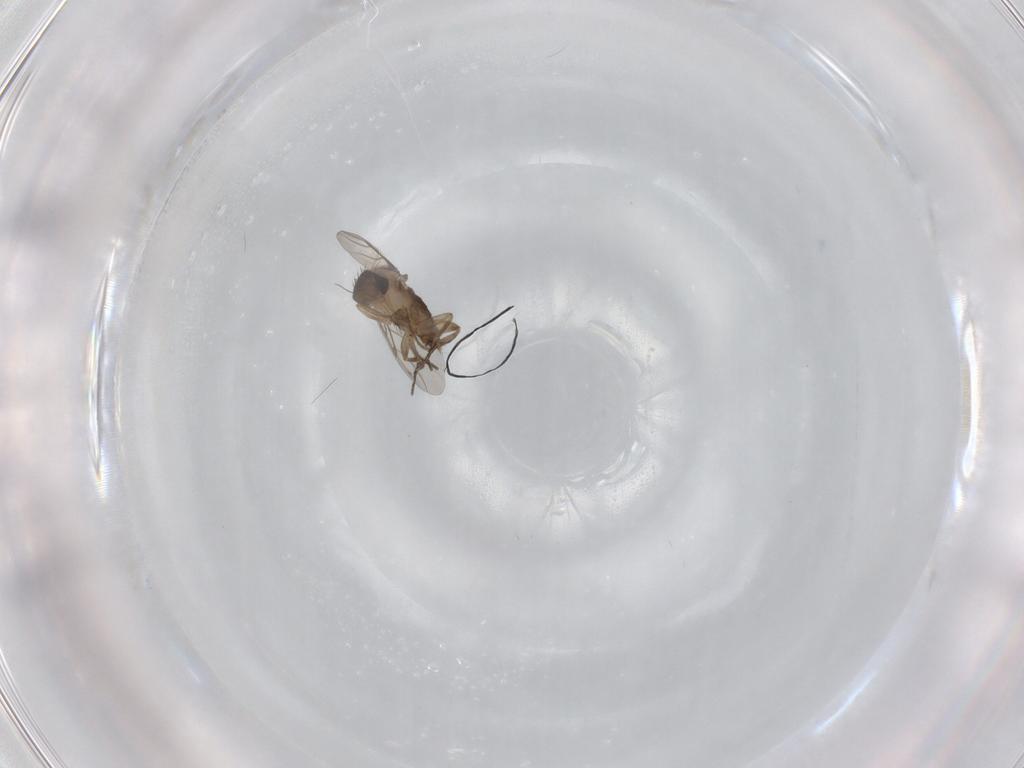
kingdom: Animalia
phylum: Arthropoda
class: Insecta
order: Diptera
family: Phoridae
